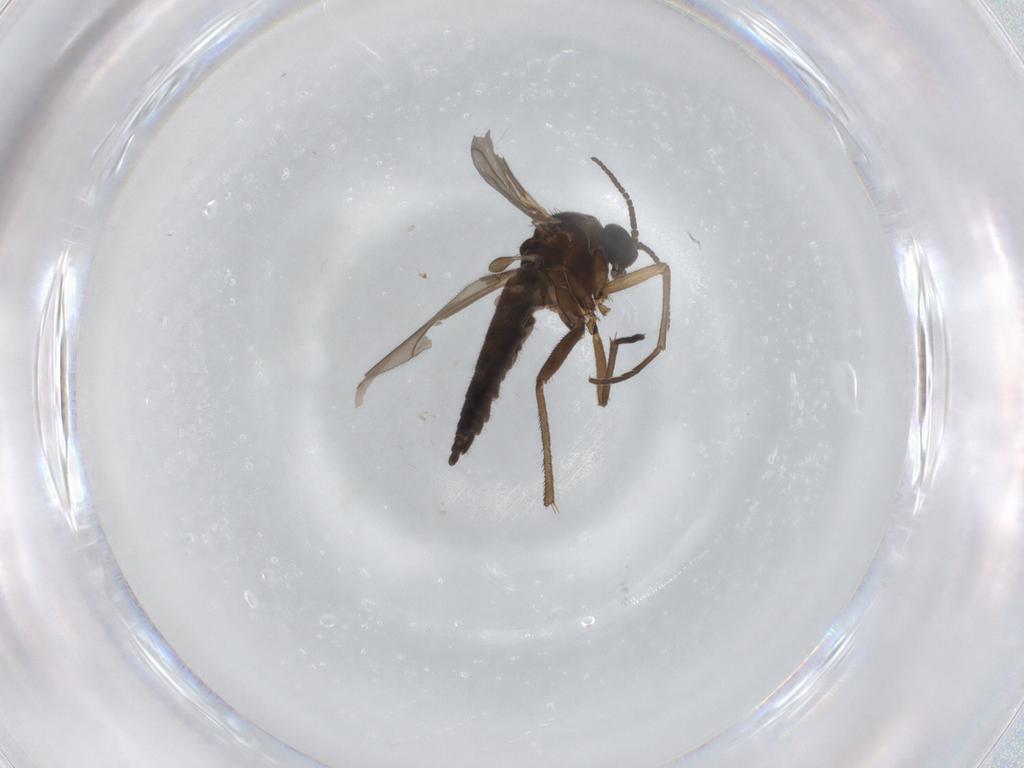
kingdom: Animalia
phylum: Arthropoda
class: Insecta
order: Diptera
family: Sciaridae
